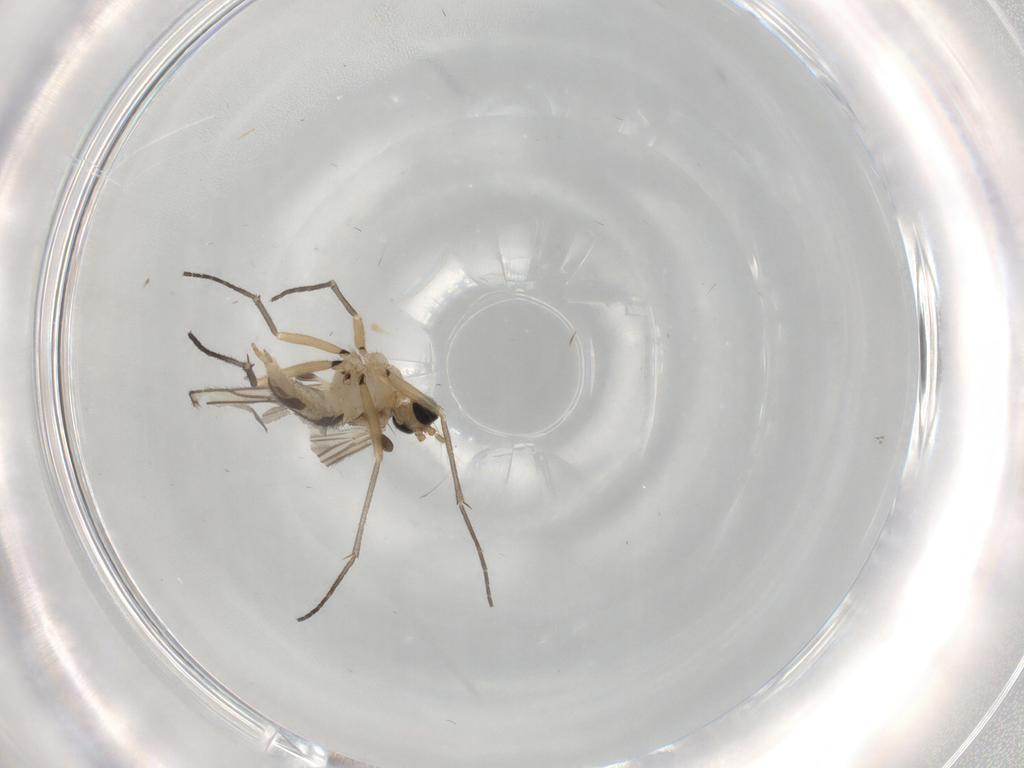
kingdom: Animalia
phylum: Arthropoda
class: Insecta
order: Diptera
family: Sciaridae
